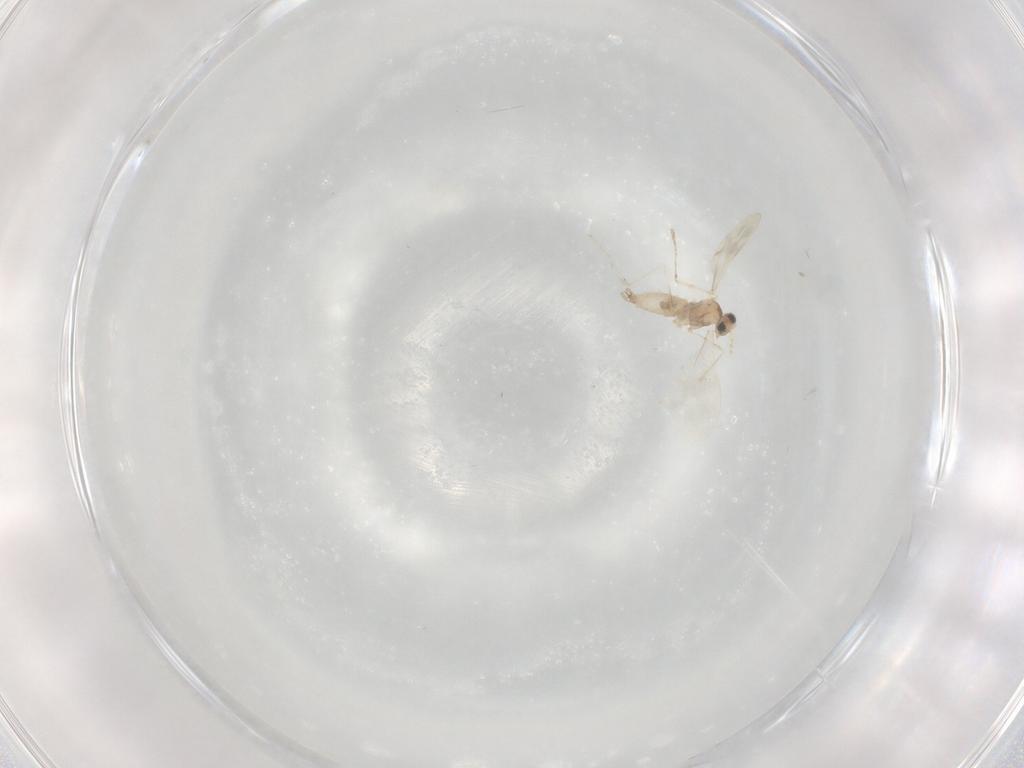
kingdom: Animalia
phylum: Arthropoda
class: Insecta
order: Diptera
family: Cecidomyiidae
